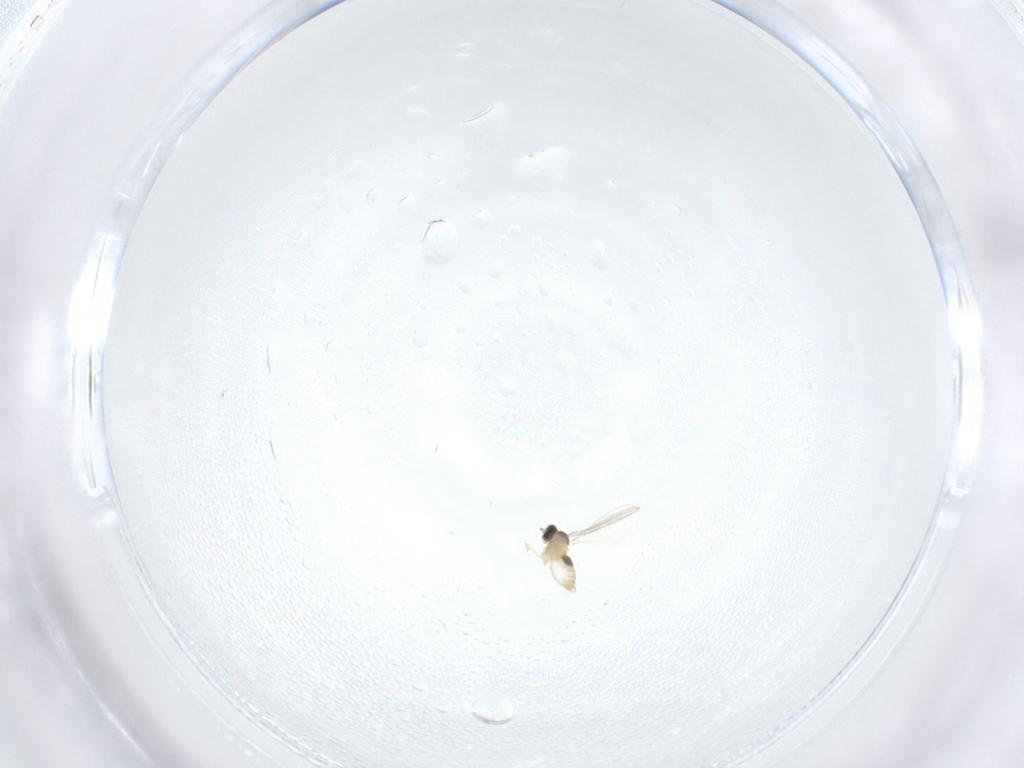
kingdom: Animalia
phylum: Arthropoda
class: Insecta
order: Diptera
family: Cecidomyiidae
